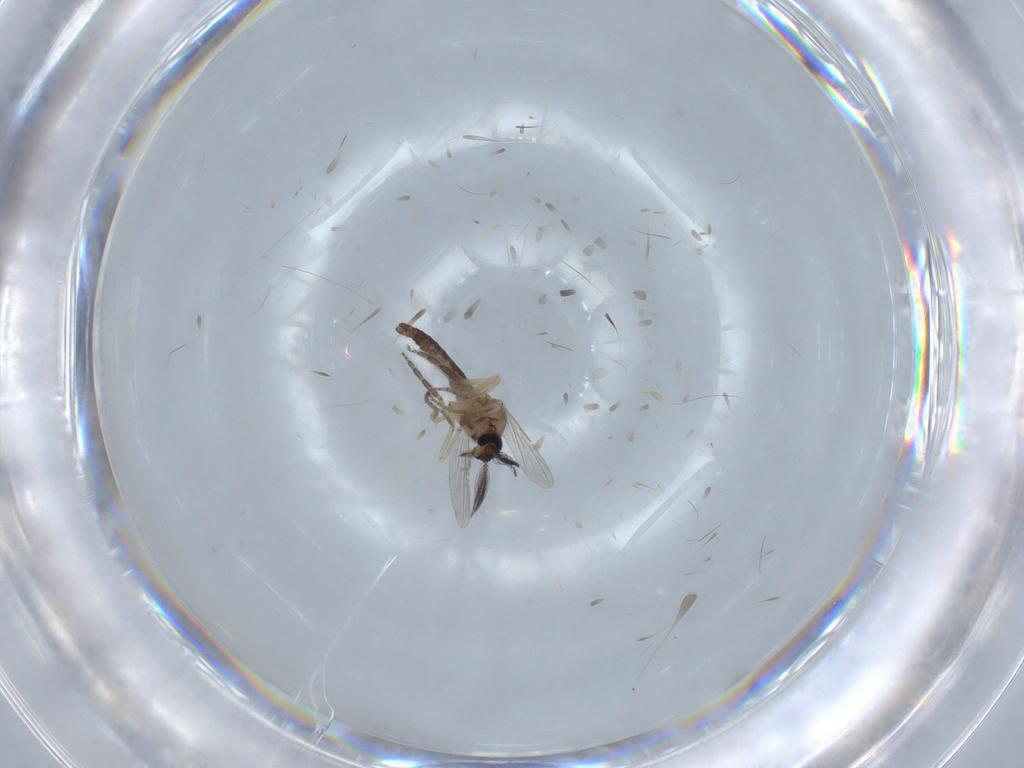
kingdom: Animalia
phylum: Arthropoda
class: Insecta
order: Diptera
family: Ceratopogonidae
